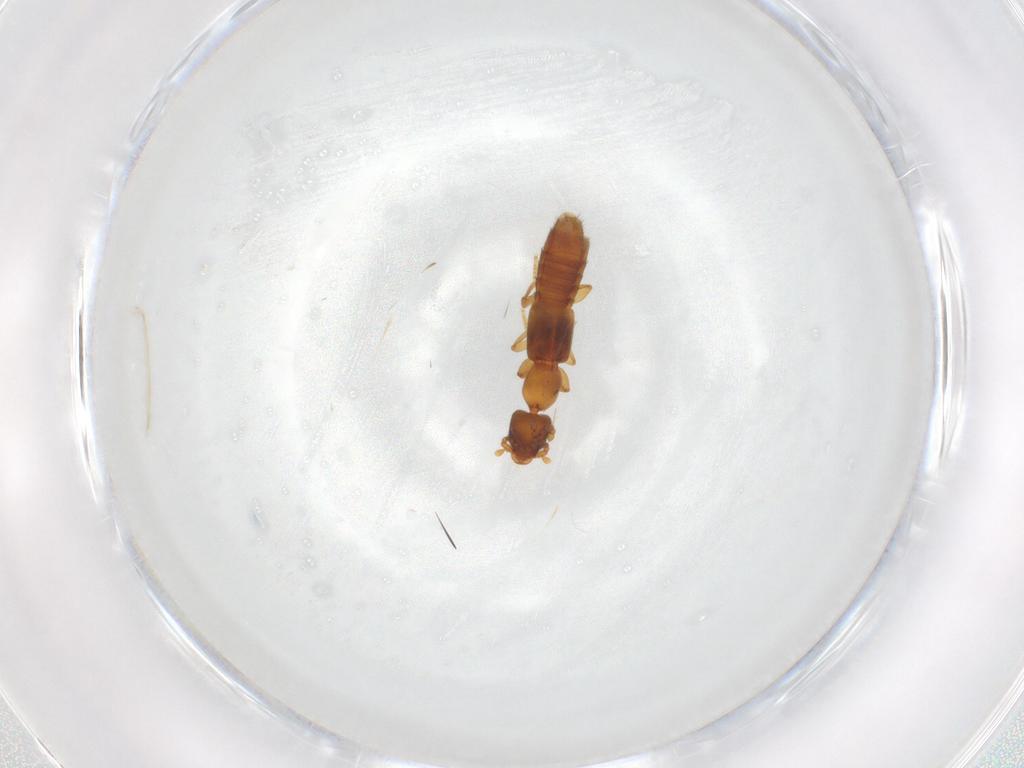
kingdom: Animalia
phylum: Arthropoda
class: Insecta
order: Coleoptera
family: Staphylinidae
